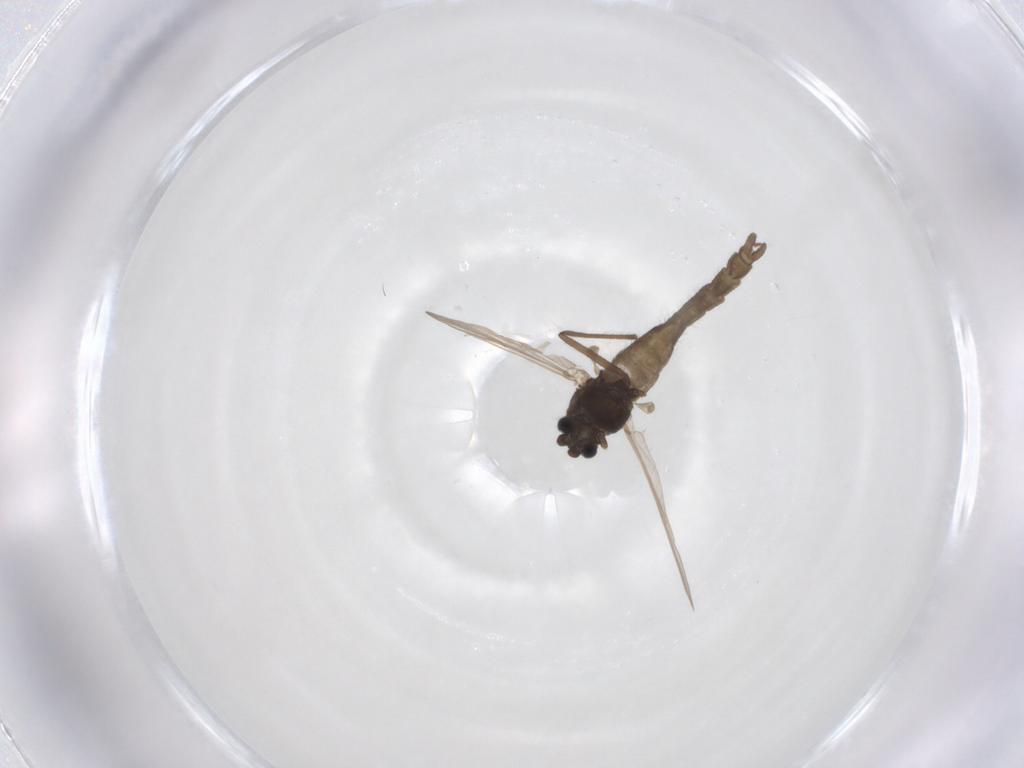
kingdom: Animalia
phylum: Arthropoda
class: Insecta
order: Diptera
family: Chironomidae
